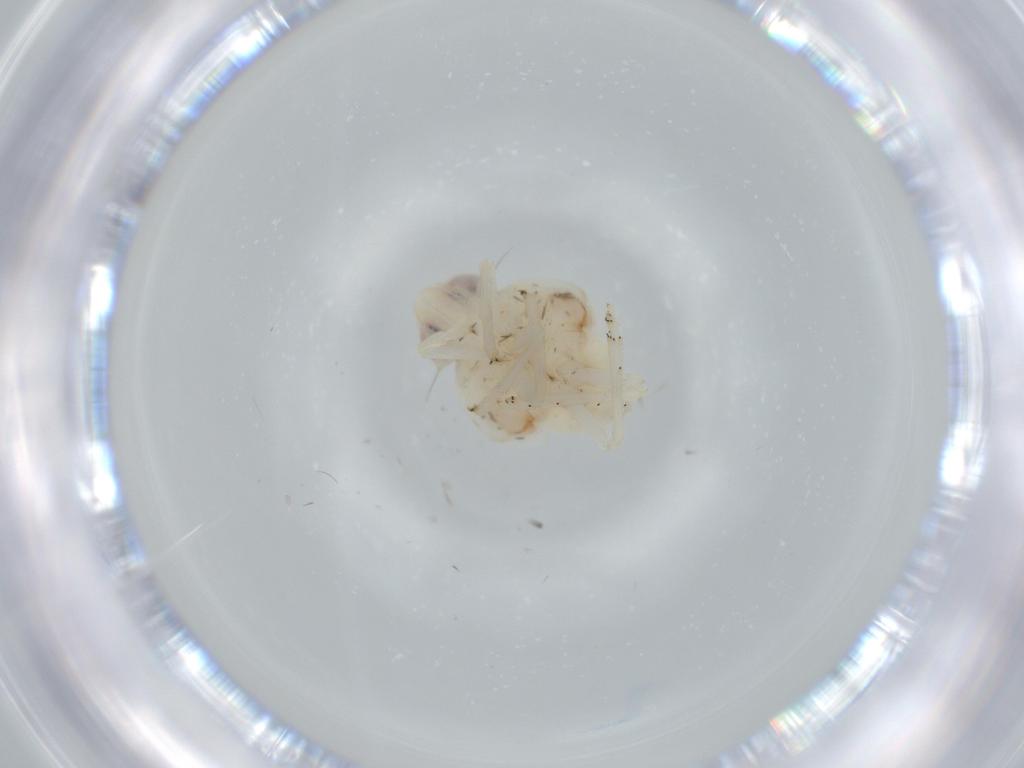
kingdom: Animalia
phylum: Arthropoda
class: Insecta
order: Hemiptera
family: Nogodinidae
